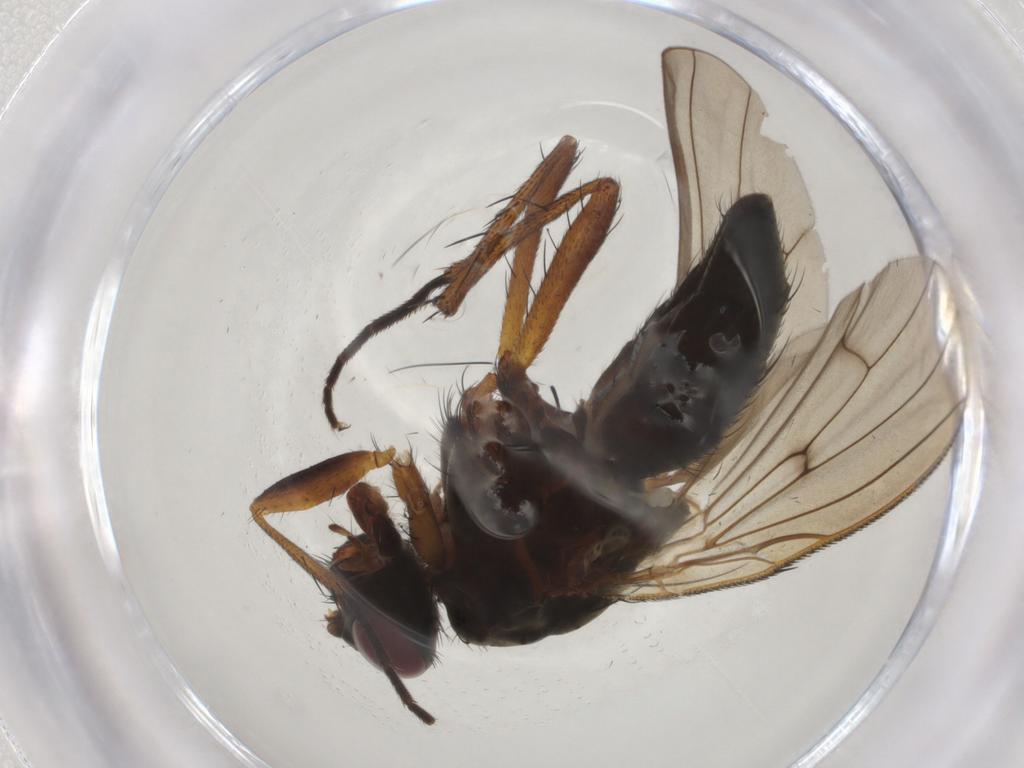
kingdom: Animalia
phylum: Arthropoda
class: Insecta
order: Diptera
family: Anthomyiidae
